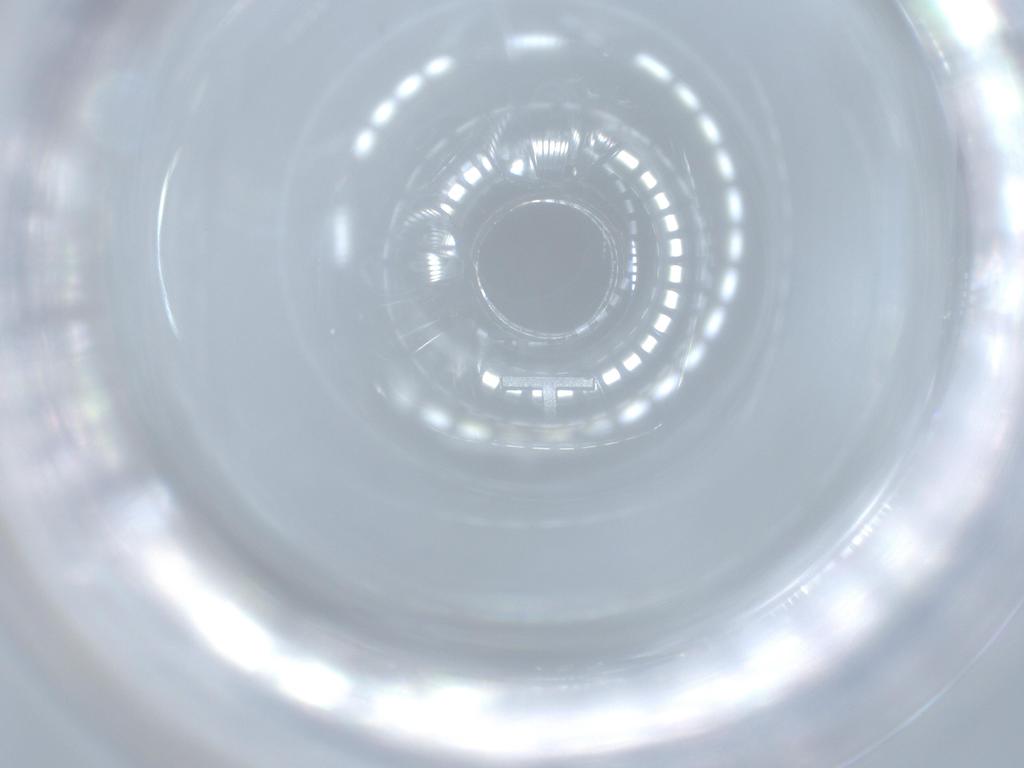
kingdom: Animalia
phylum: Arthropoda
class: Insecta
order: Hymenoptera
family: Scelionidae
